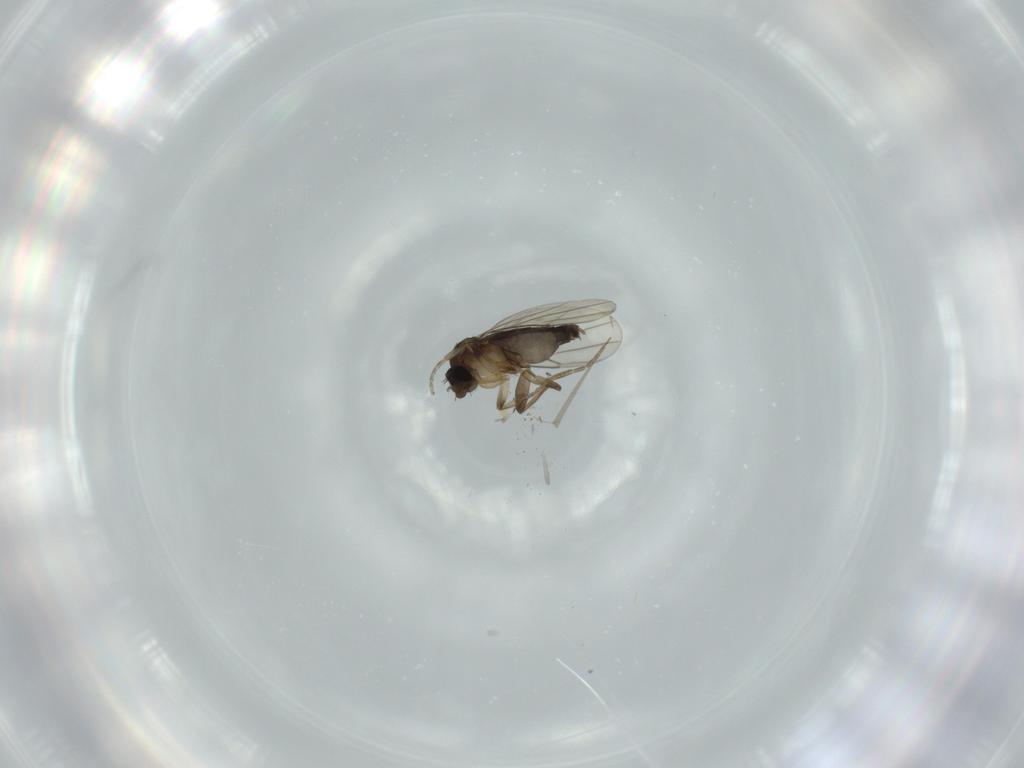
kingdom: Animalia
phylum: Arthropoda
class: Insecta
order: Diptera
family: Phoridae
